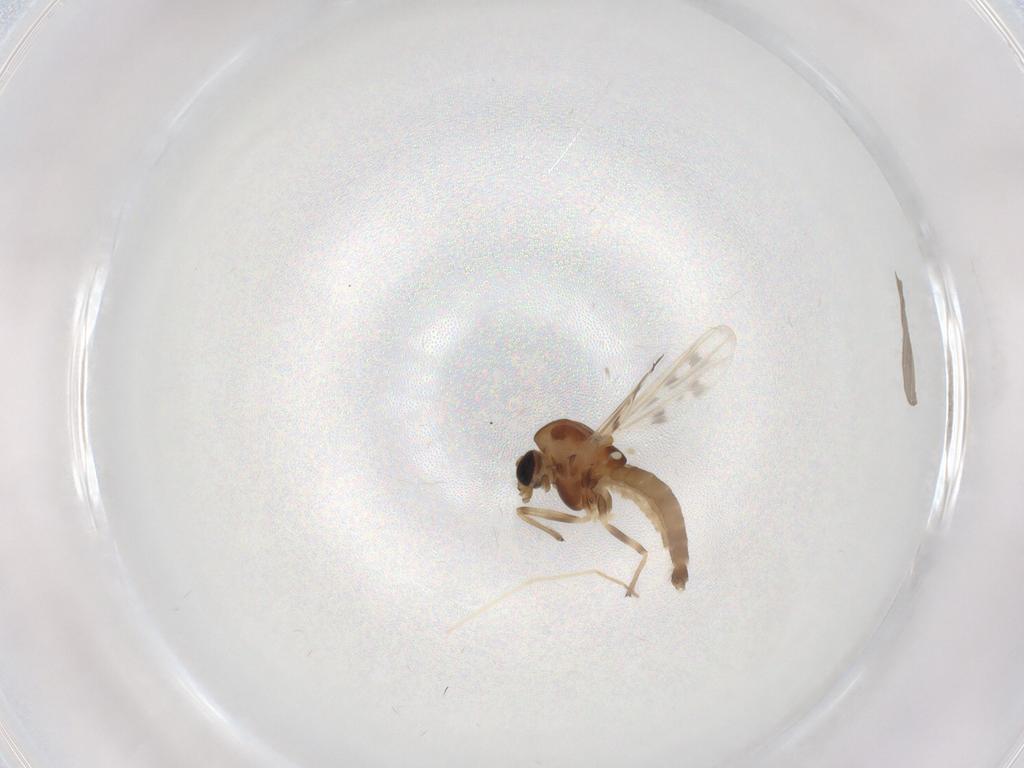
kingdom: Animalia
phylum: Arthropoda
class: Insecta
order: Diptera
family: Chironomidae
